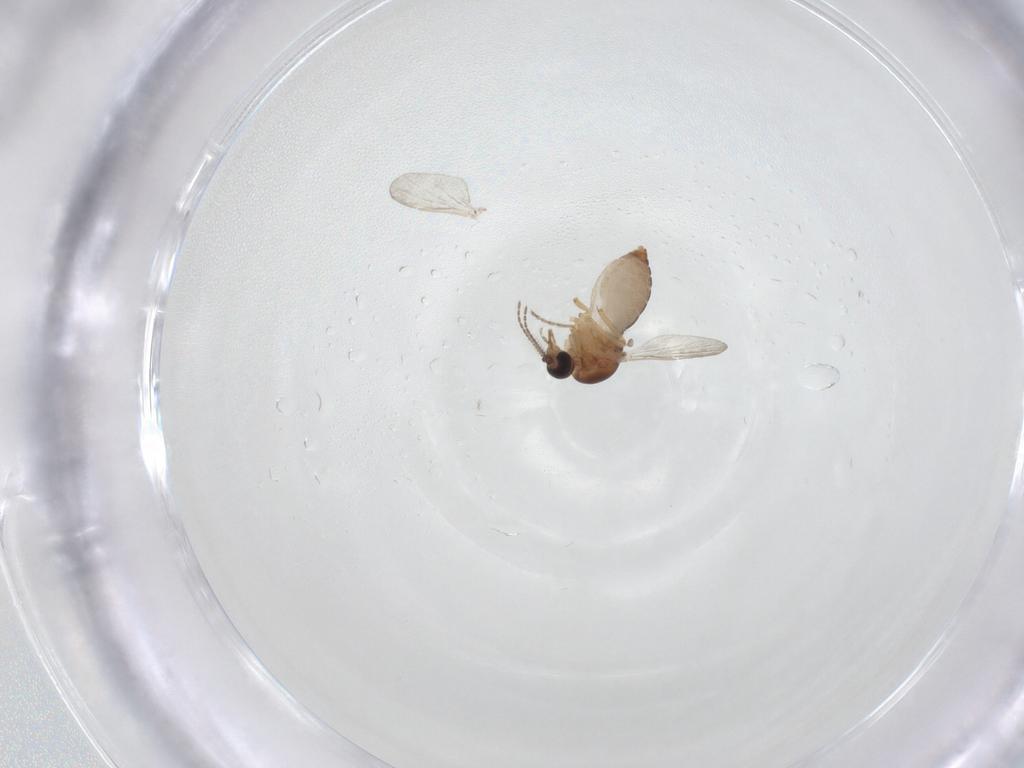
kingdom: Animalia
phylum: Arthropoda
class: Insecta
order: Diptera
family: Ceratopogonidae
